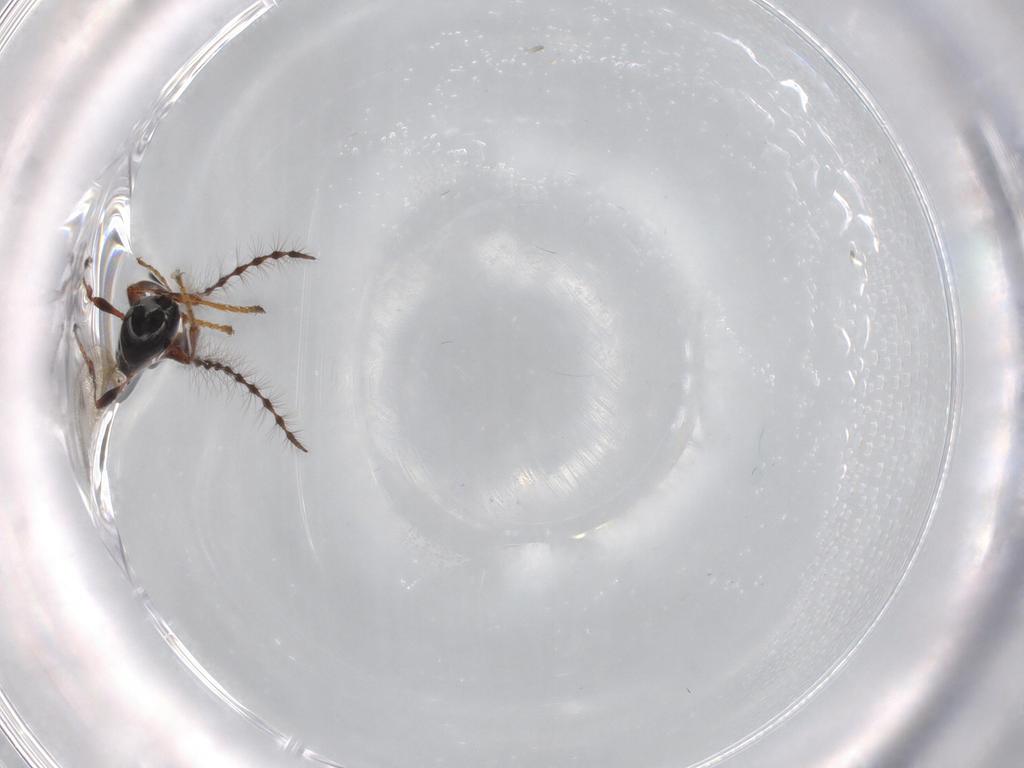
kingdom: Animalia
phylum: Arthropoda
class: Insecta
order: Hymenoptera
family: Diapriidae
